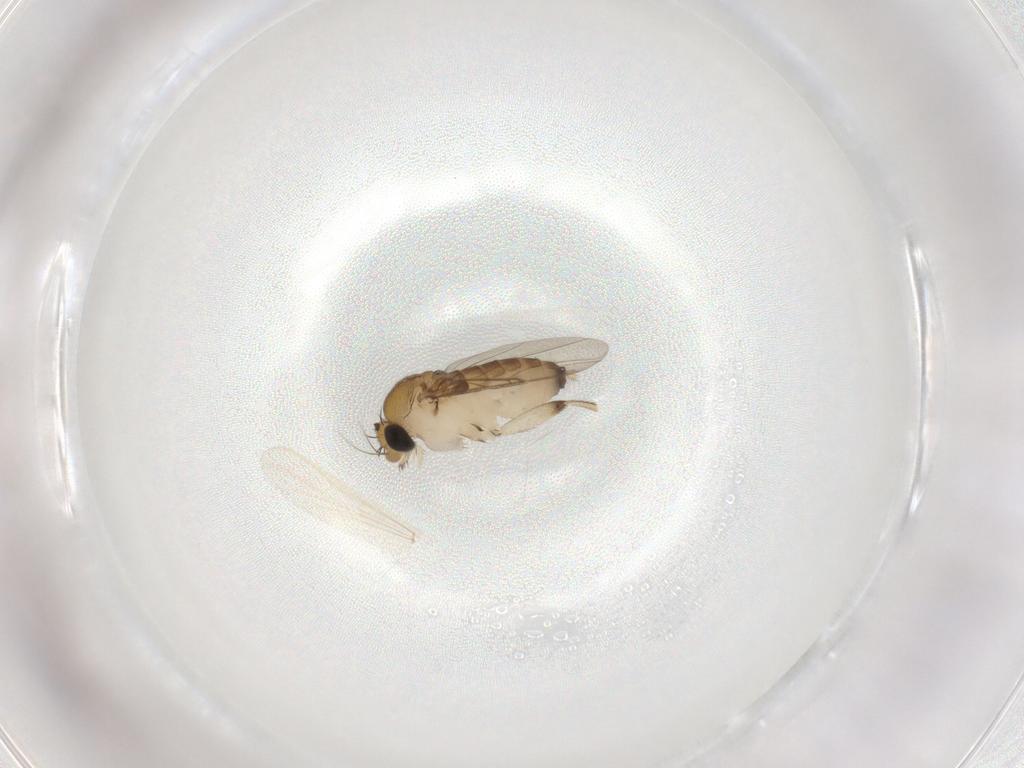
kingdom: Animalia
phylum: Arthropoda
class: Insecta
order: Diptera
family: Phoridae
